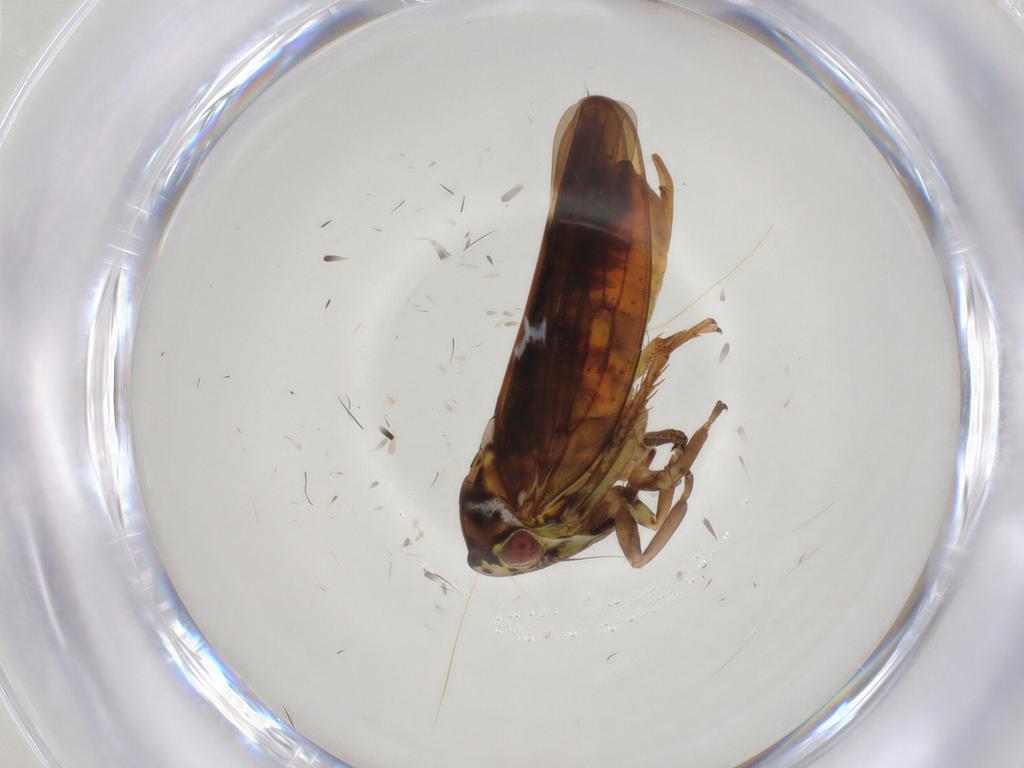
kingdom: Animalia
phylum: Arthropoda
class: Insecta
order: Hemiptera
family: Cicadellidae
